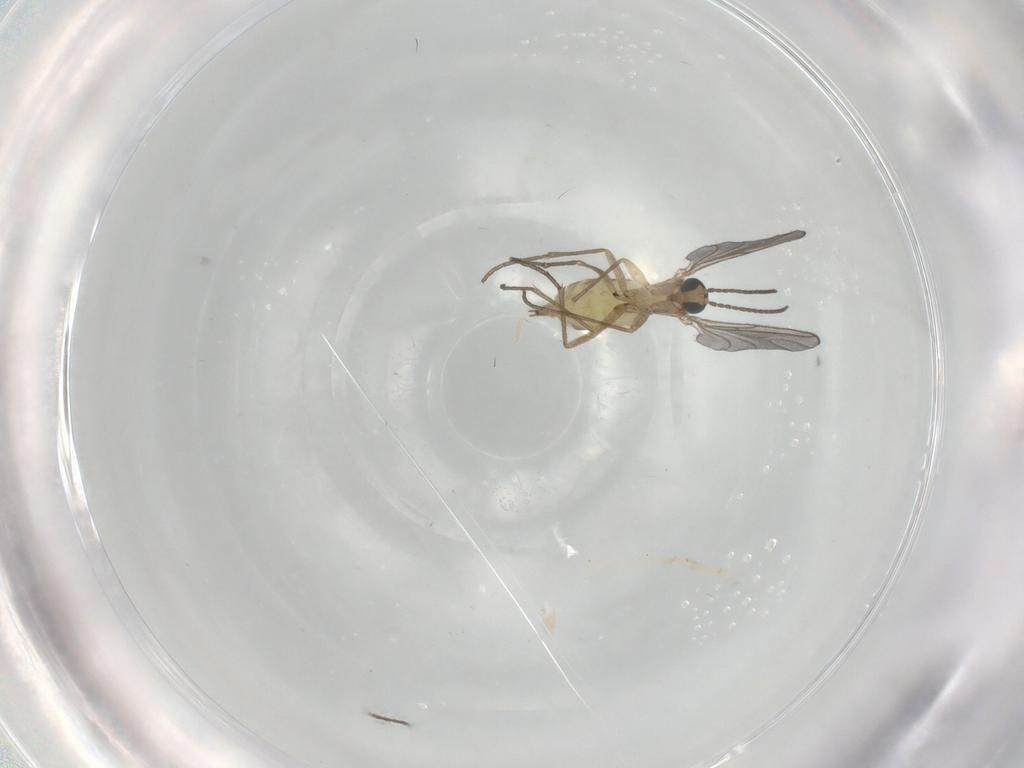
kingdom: Animalia
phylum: Arthropoda
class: Insecta
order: Diptera
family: Sciaridae
